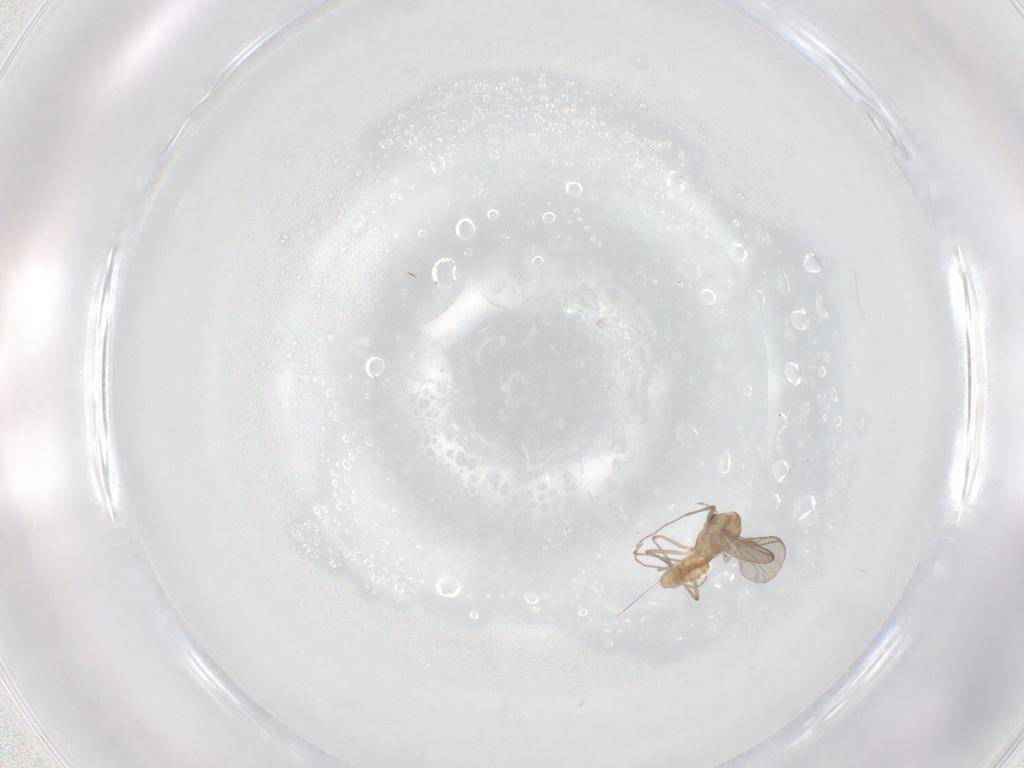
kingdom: Animalia
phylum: Arthropoda
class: Insecta
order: Diptera
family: Chironomidae
